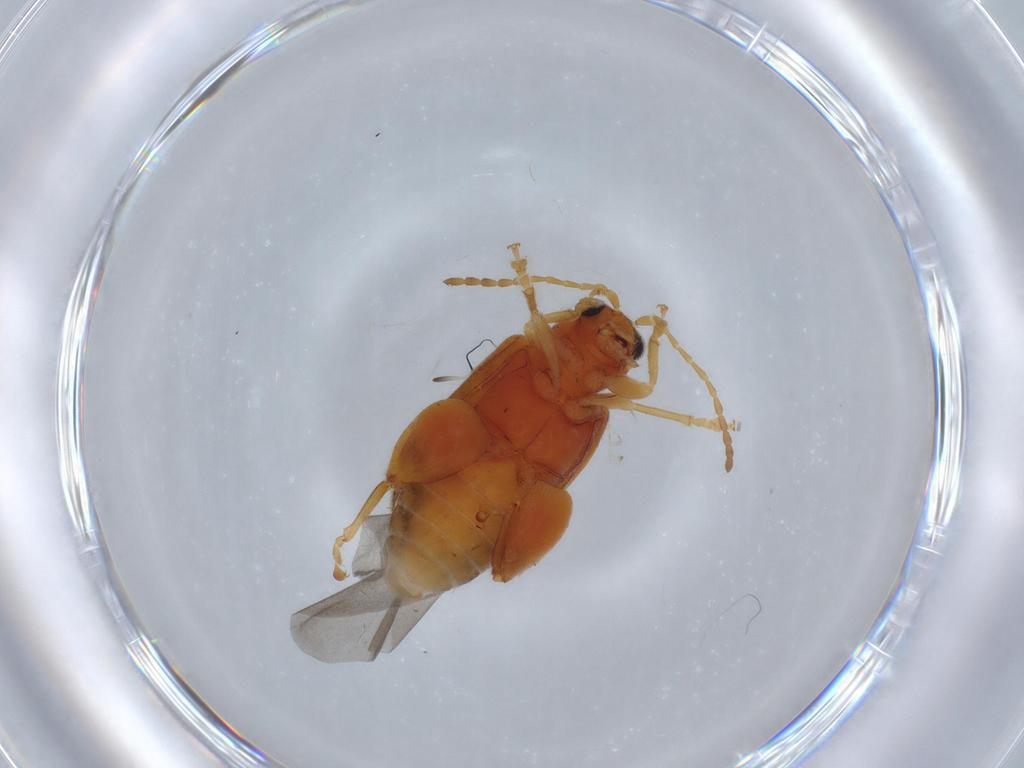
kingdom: Animalia
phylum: Arthropoda
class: Insecta
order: Coleoptera
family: Chrysomelidae
